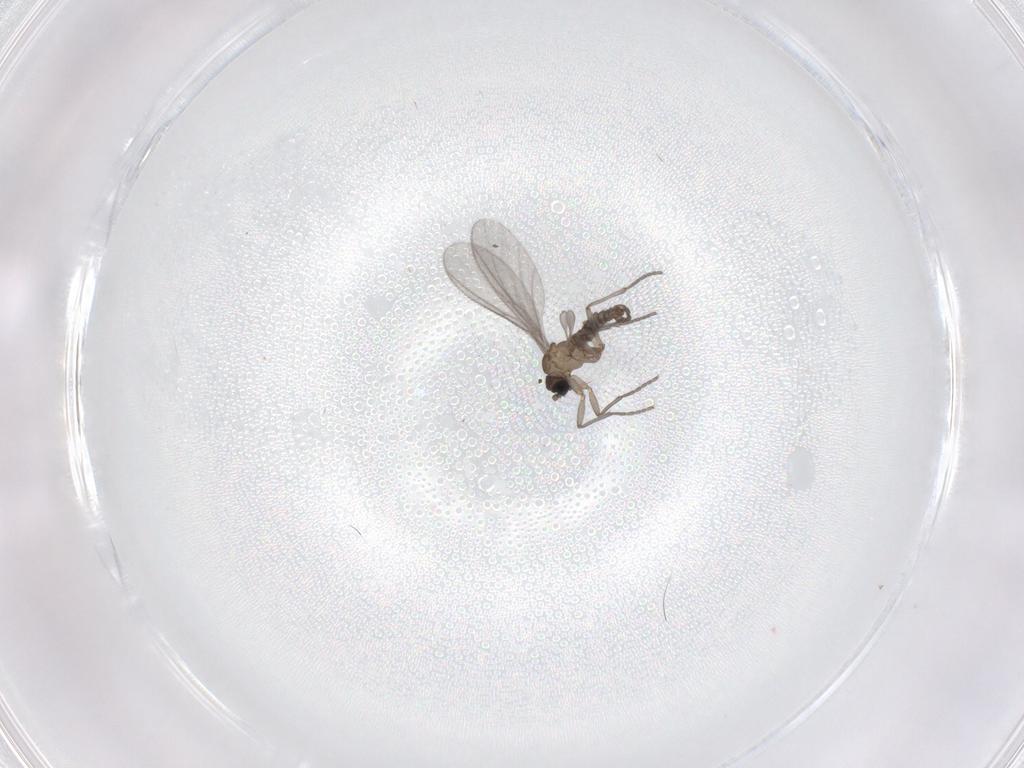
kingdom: Animalia
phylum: Arthropoda
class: Insecta
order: Diptera
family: Sciaridae
